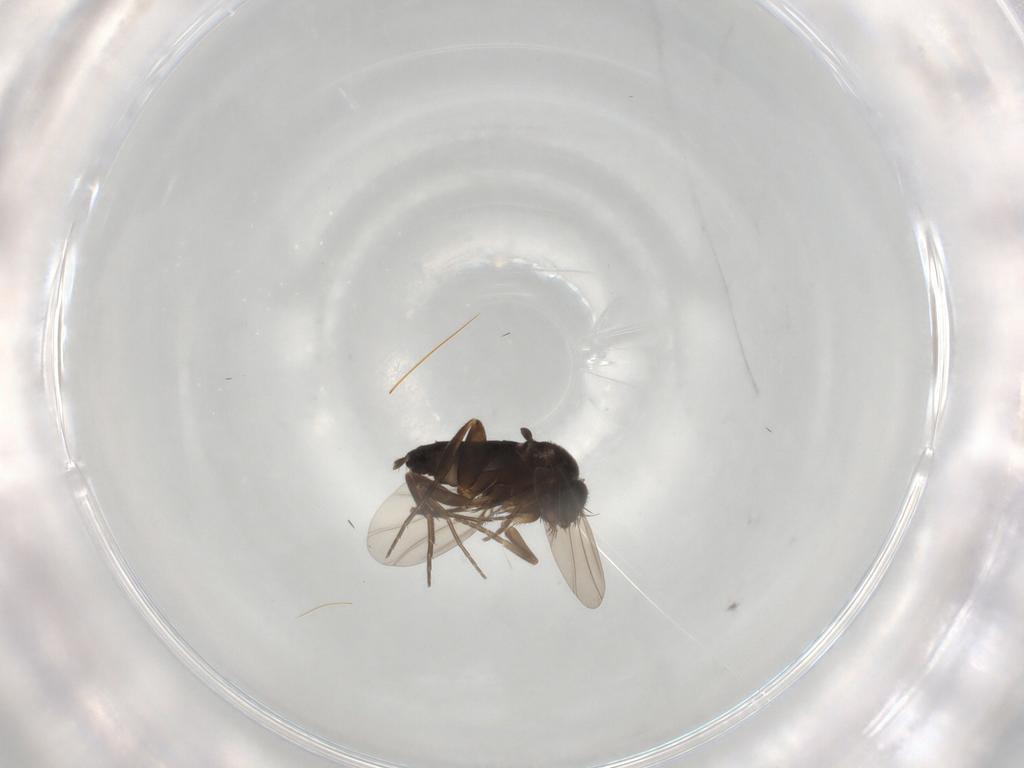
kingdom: Animalia
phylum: Arthropoda
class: Insecta
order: Diptera
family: Phoridae
